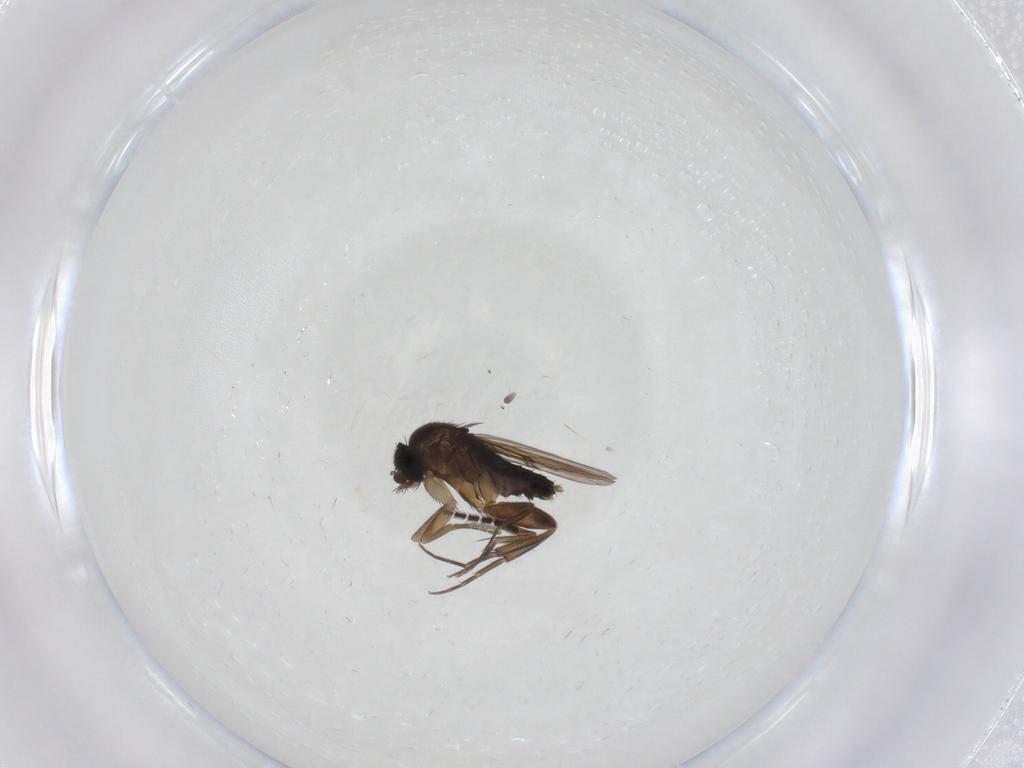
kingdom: Animalia
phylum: Arthropoda
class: Insecta
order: Diptera
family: Phoridae
